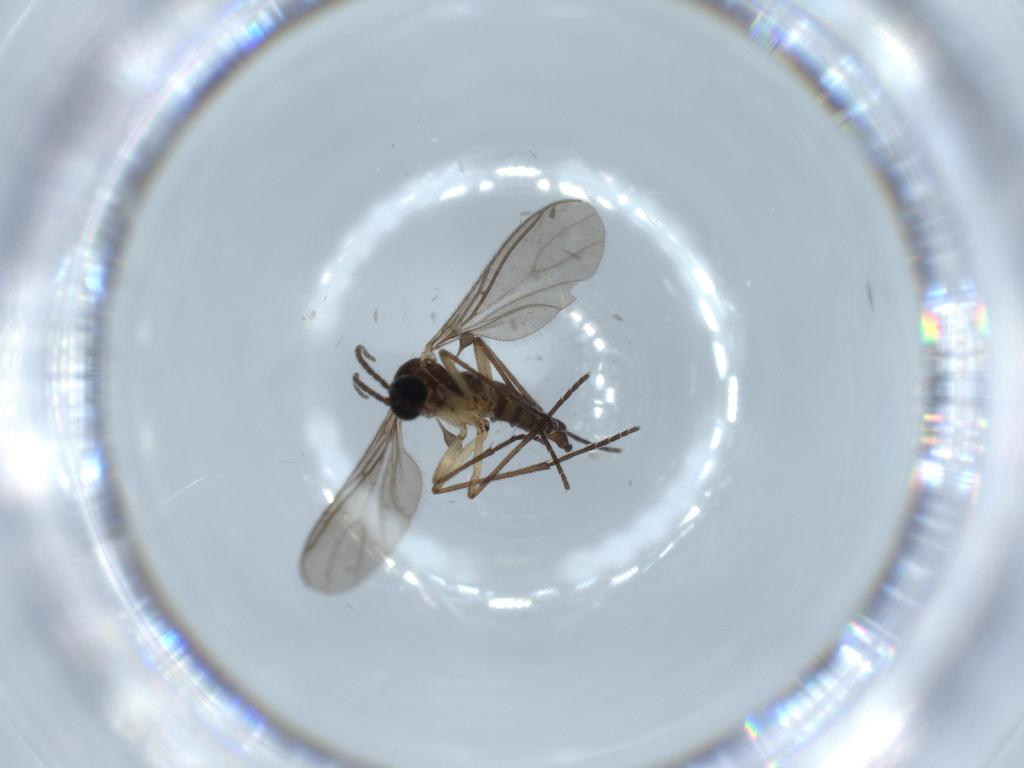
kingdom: Animalia
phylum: Arthropoda
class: Insecta
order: Diptera
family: Sciaridae
